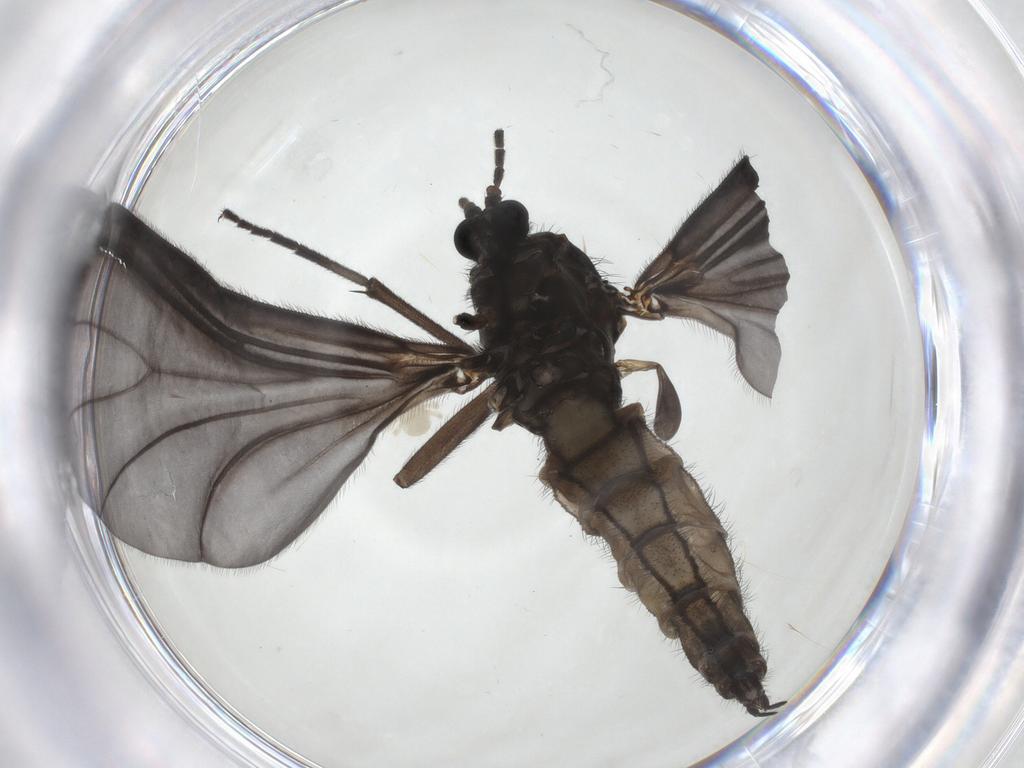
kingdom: Animalia
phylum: Arthropoda
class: Insecta
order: Diptera
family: Sciaridae
